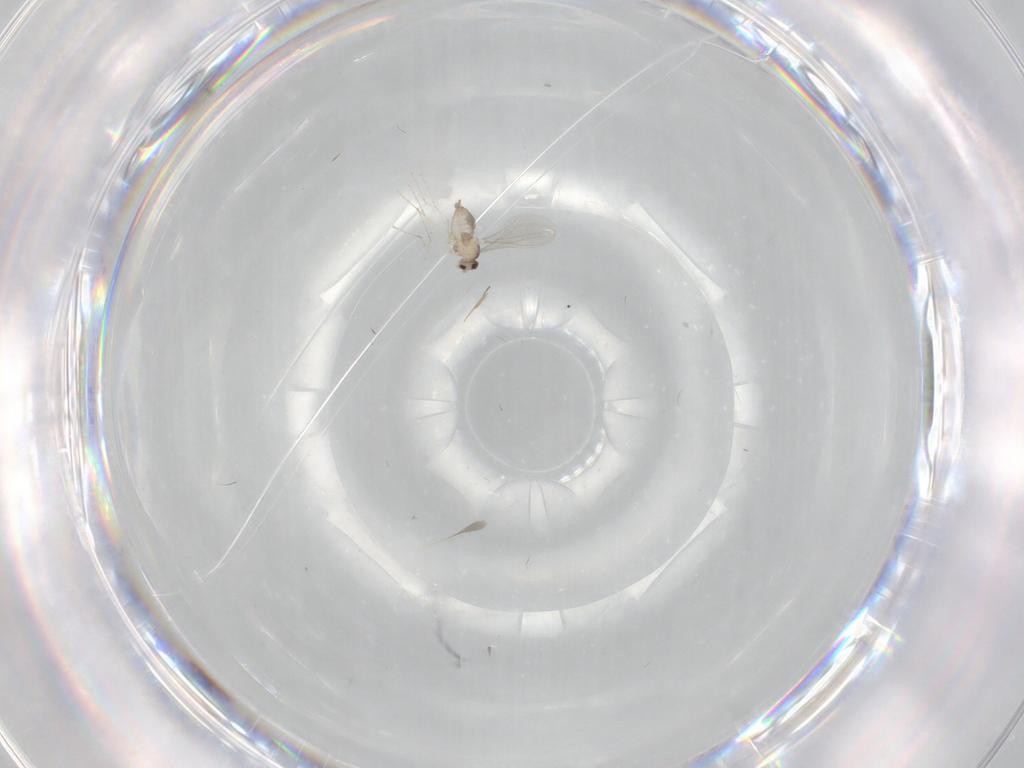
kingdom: Animalia
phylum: Arthropoda
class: Insecta
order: Diptera
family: Cecidomyiidae
